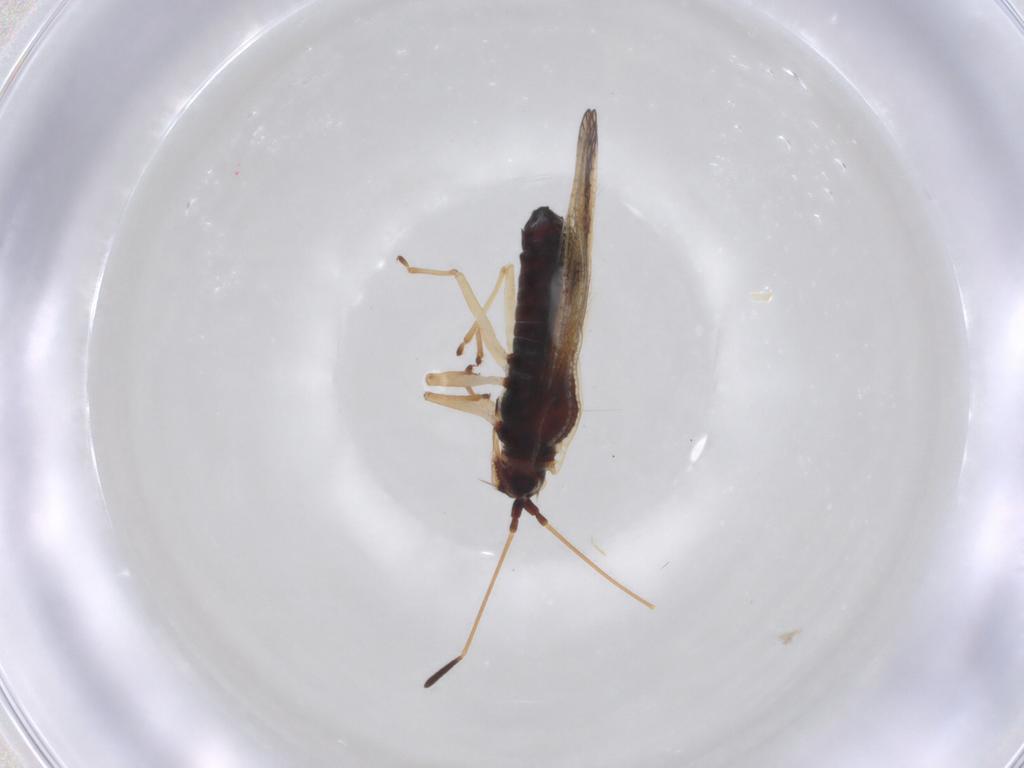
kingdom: Animalia
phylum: Arthropoda
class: Insecta
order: Hemiptera
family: Tingidae
